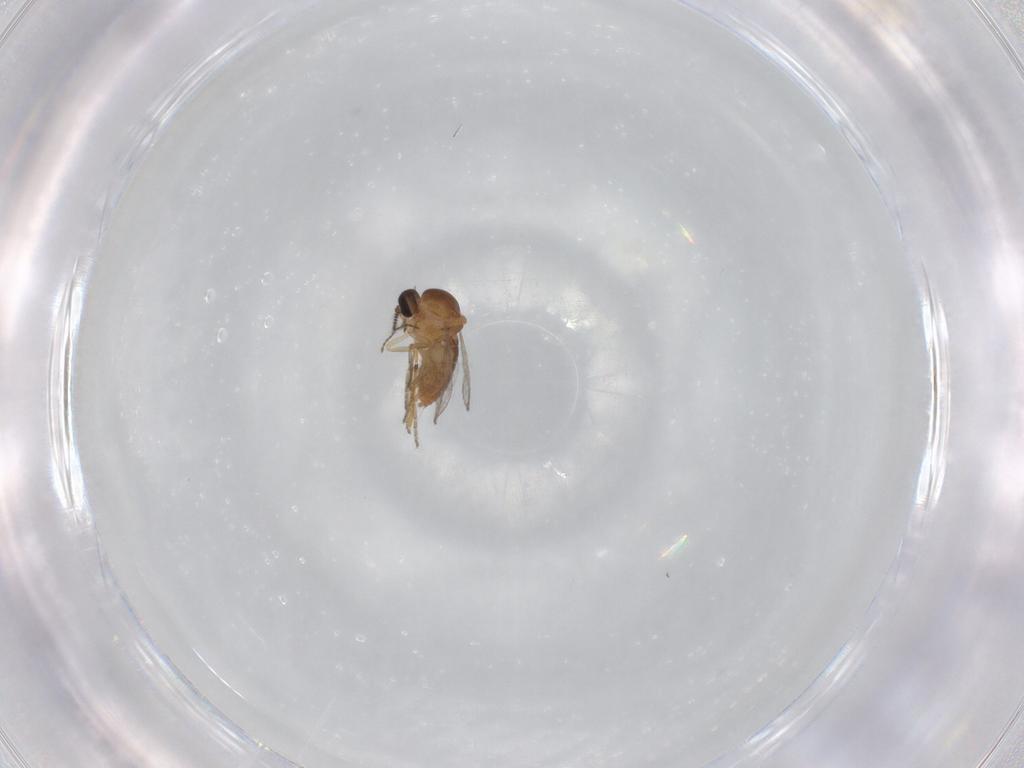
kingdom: Animalia
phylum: Arthropoda
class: Insecta
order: Diptera
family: Ceratopogonidae
